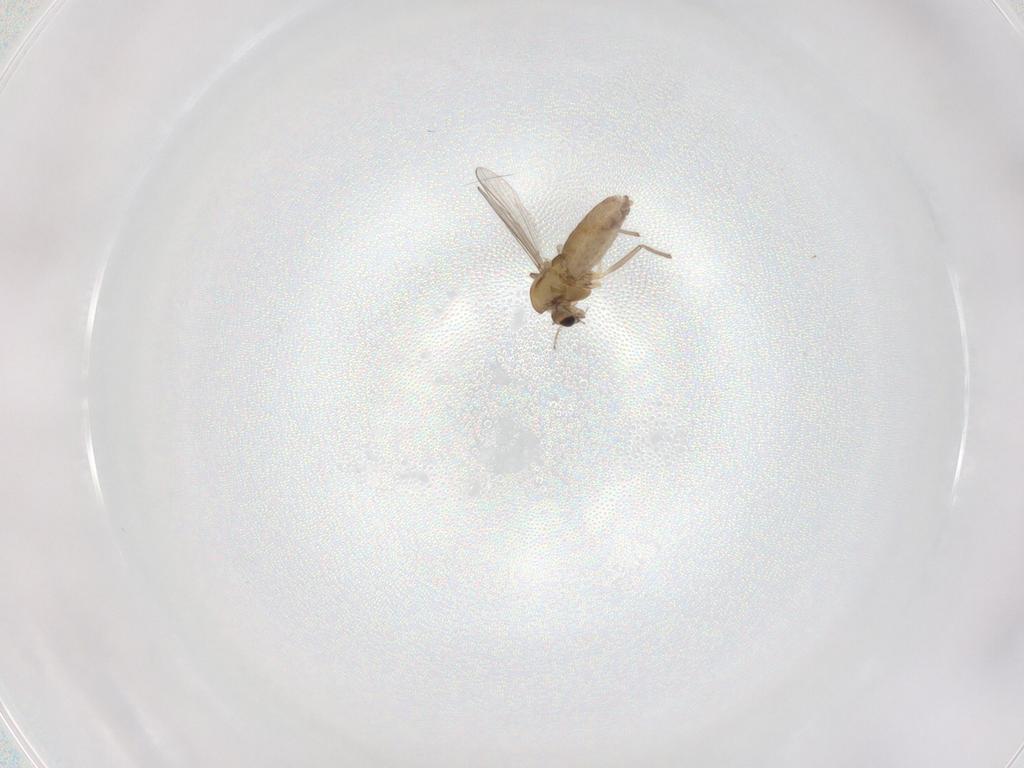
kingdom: Animalia
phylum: Arthropoda
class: Insecta
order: Diptera
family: Chironomidae
